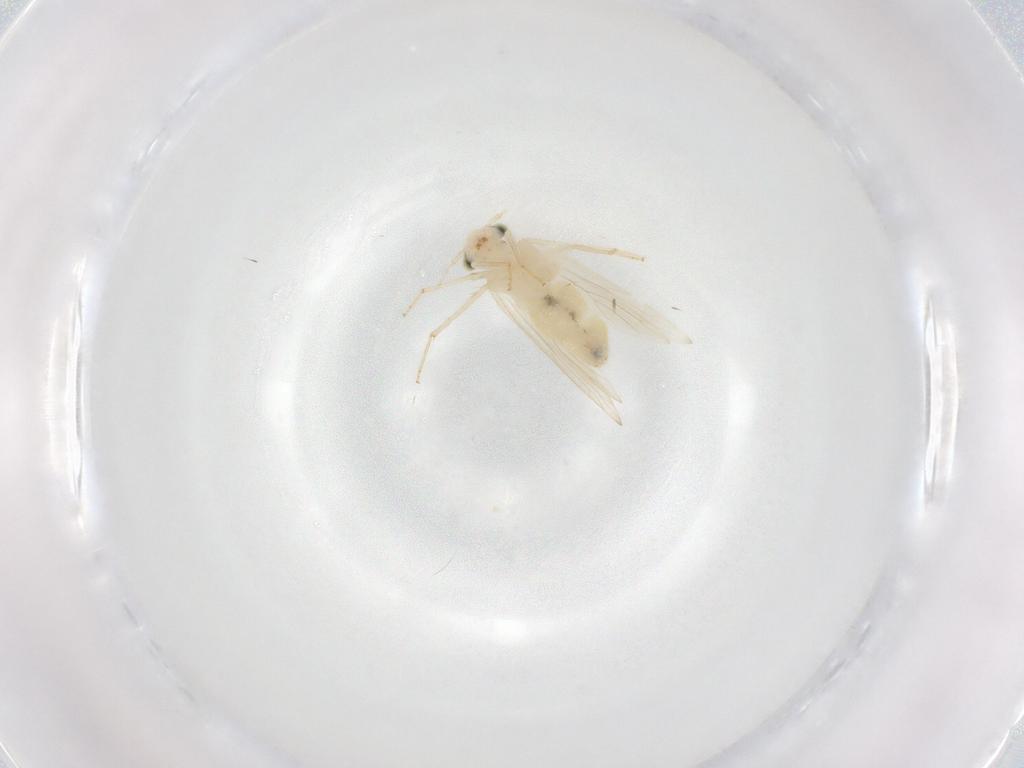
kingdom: Animalia
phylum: Arthropoda
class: Insecta
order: Psocodea
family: Lepidopsocidae
